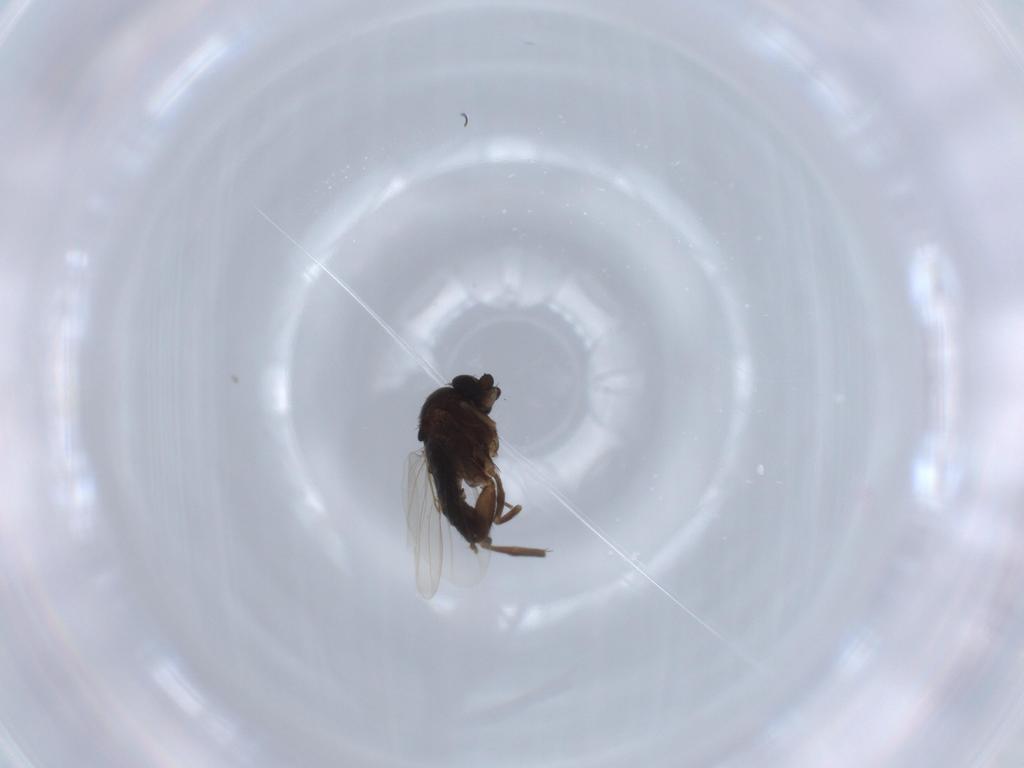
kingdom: Animalia
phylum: Arthropoda
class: Insecta
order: Diptera
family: Phoridae
